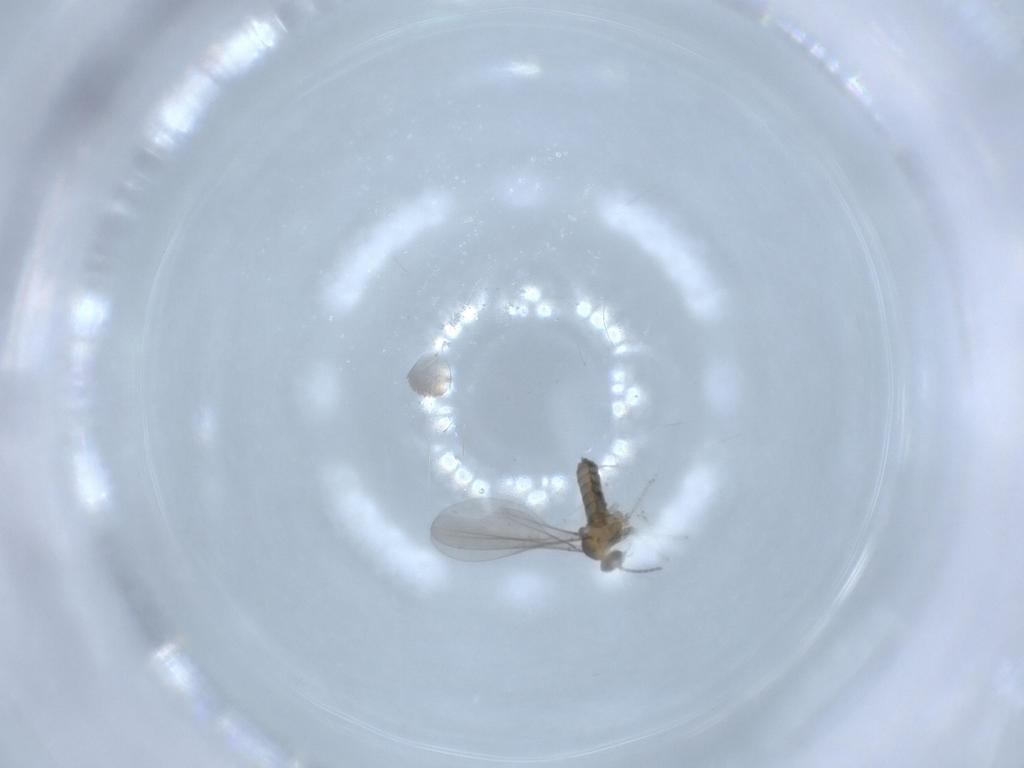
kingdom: Animalia
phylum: Arthropoda
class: Insecta
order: Diptera
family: Cecidomyiidae
